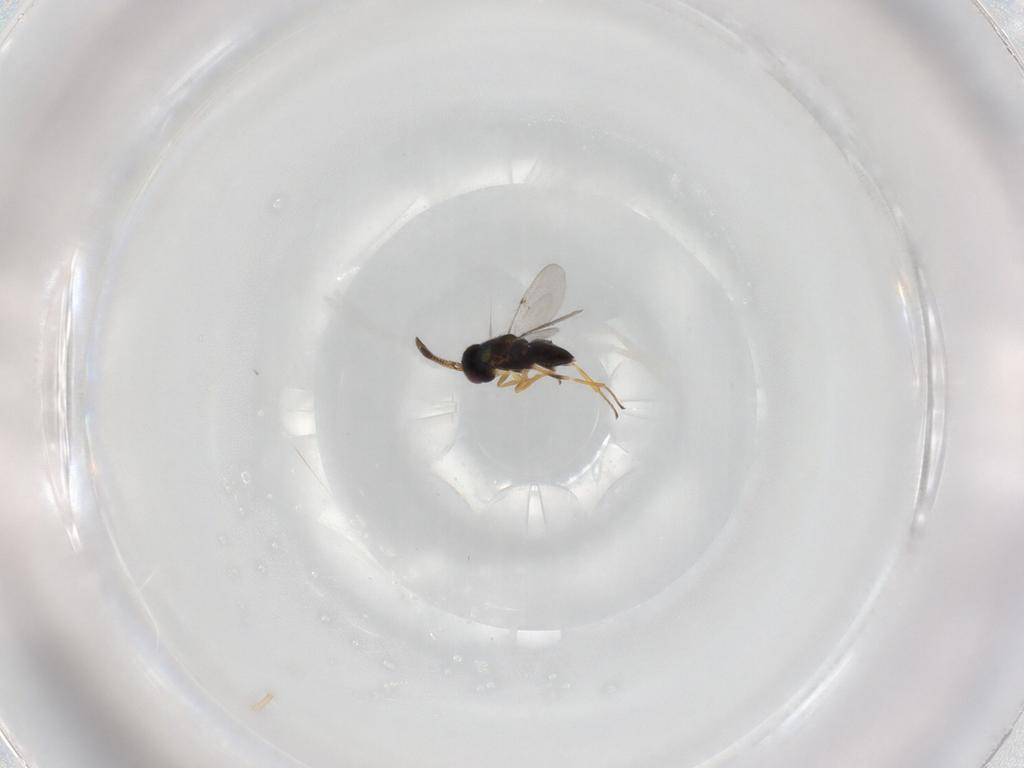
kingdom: Animalia
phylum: Arthropoda
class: Insecta
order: Hymenoptera
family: Encyrtidae
